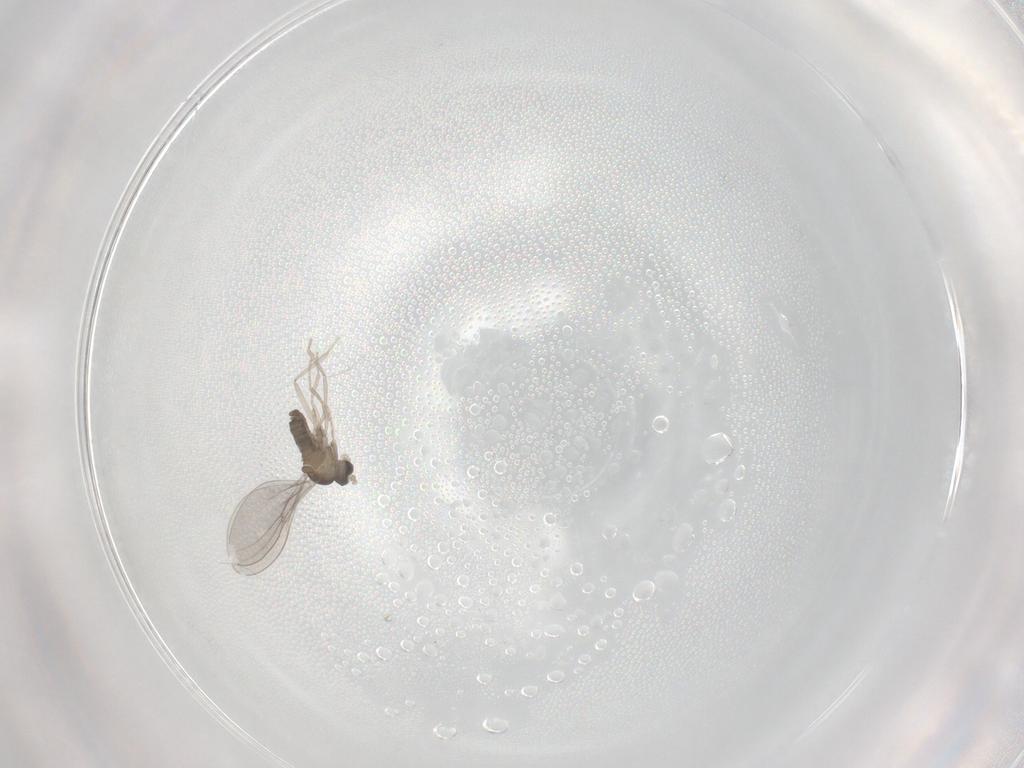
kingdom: Animalia
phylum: Arthropoda
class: Insecta
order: Diptera
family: Cecidomyiidae
